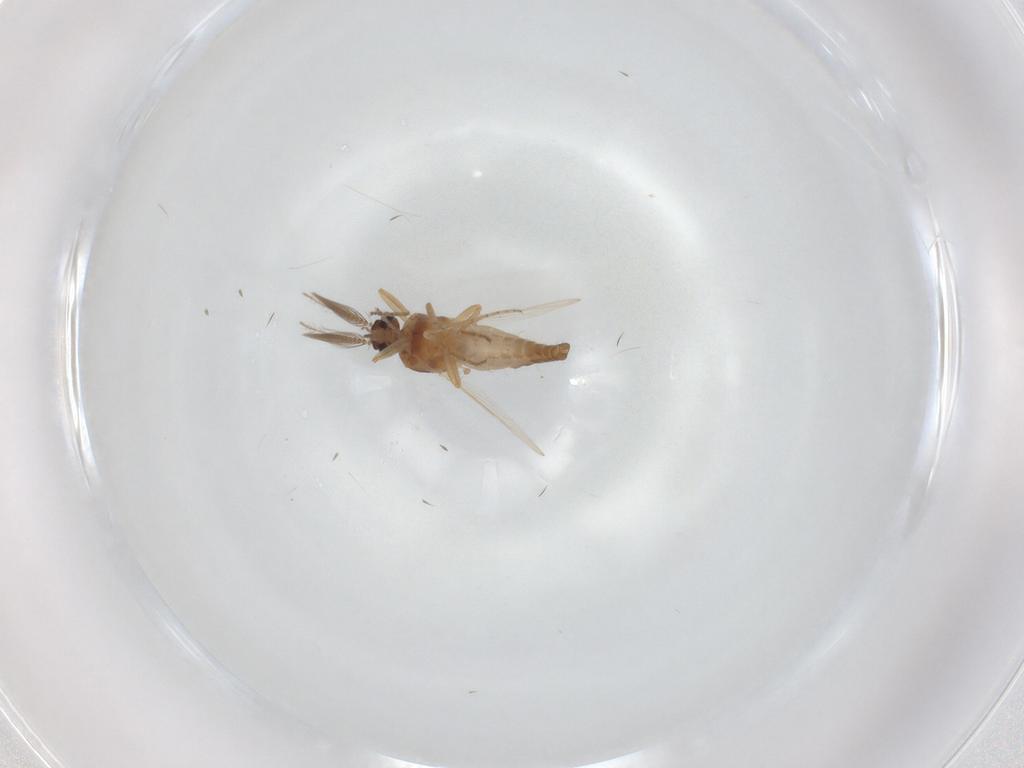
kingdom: Animalia
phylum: Arthropoda
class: Insecta
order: Diptera
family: Ceratopogonidae
